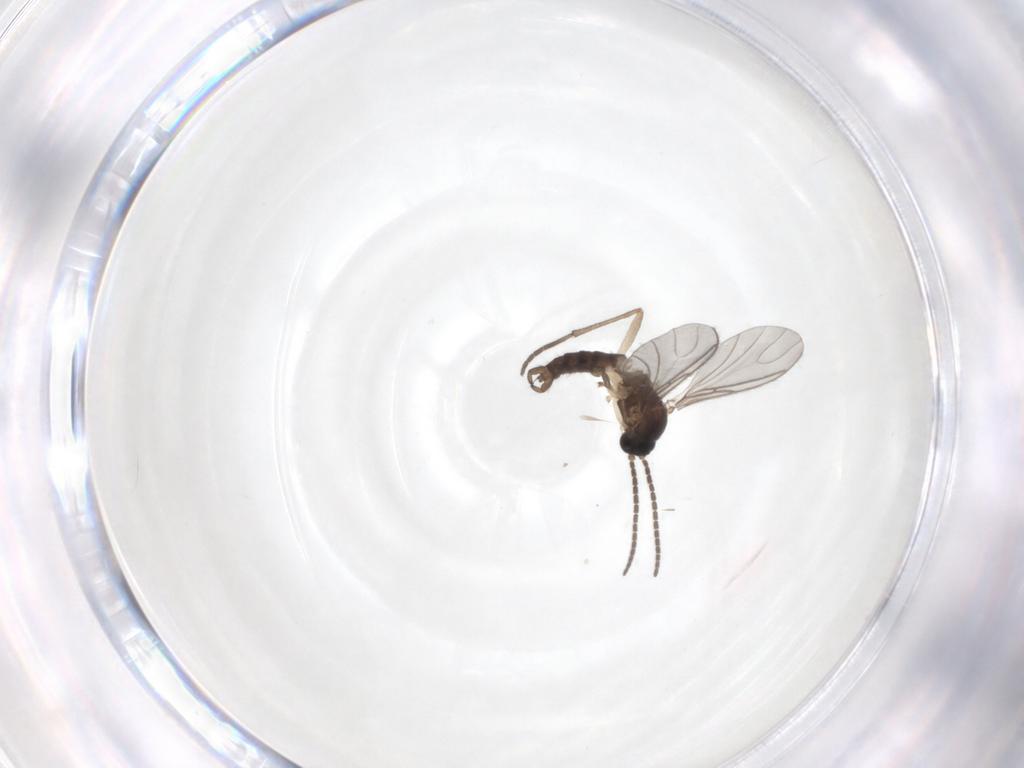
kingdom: Animalia
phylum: Arthropoda
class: Insecta
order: Diptera
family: Sciaridae
